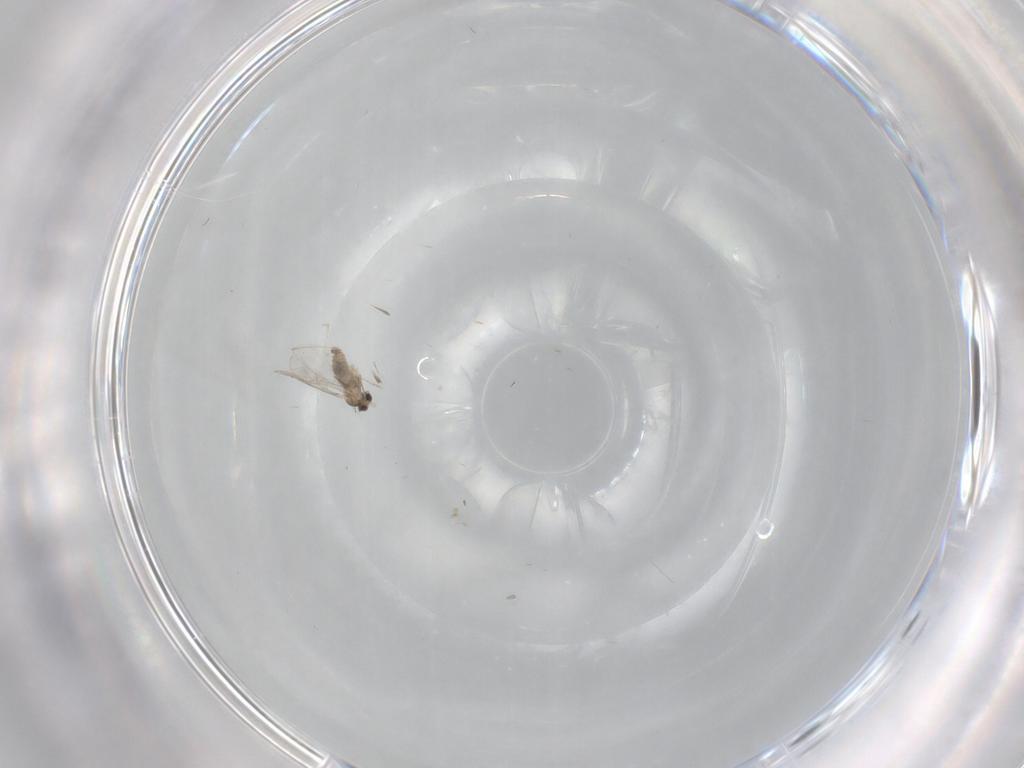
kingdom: Animalia
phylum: Arthropoda
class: Insecta
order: Diptera
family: Cecidomyiidae
